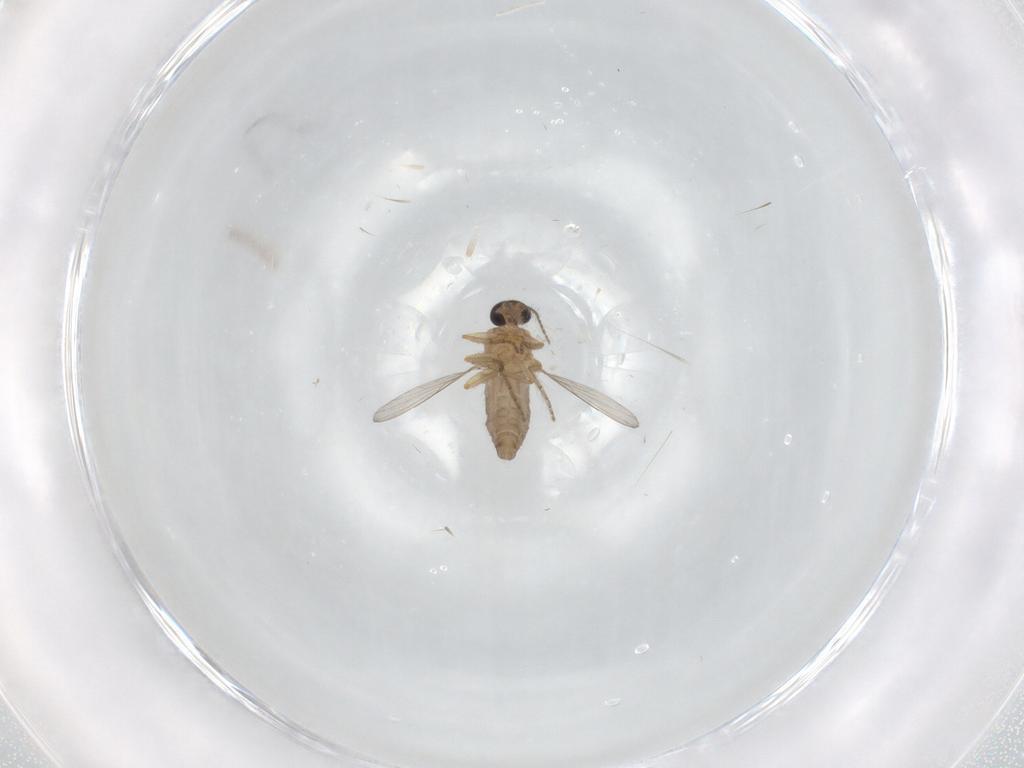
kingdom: Animalia
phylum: Arthropoda
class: Insecta
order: Diptera
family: Ceratopogonidae
